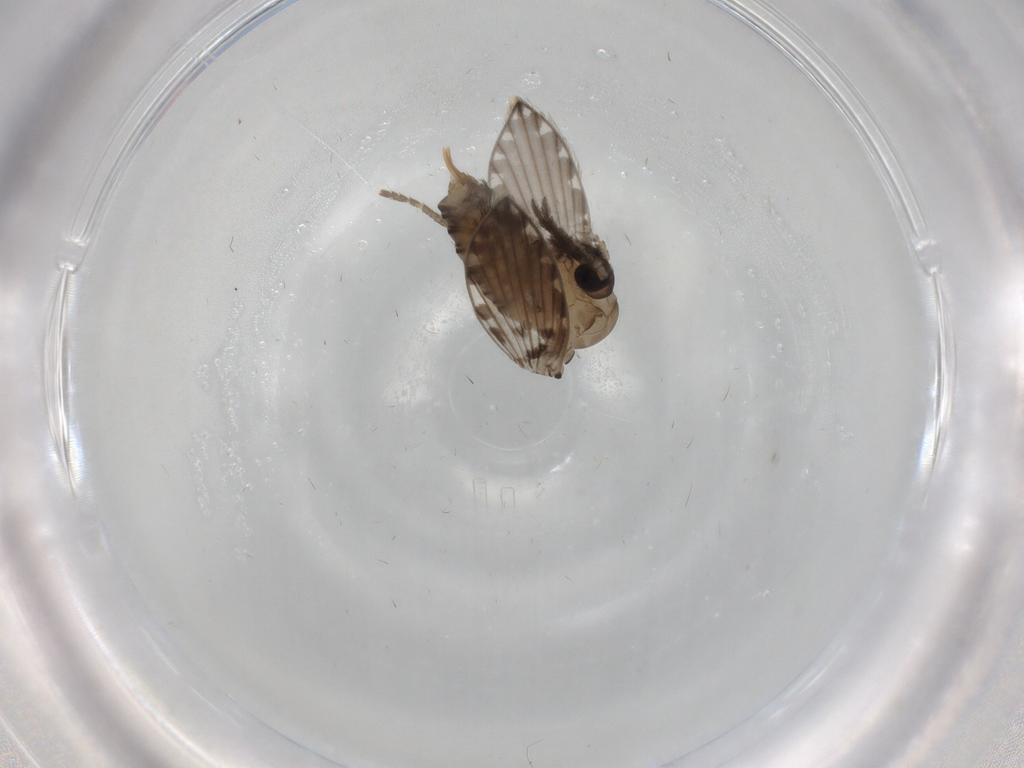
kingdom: Animalia
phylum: Arthropoda
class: Insecta
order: Diptera
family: Psychodidae
